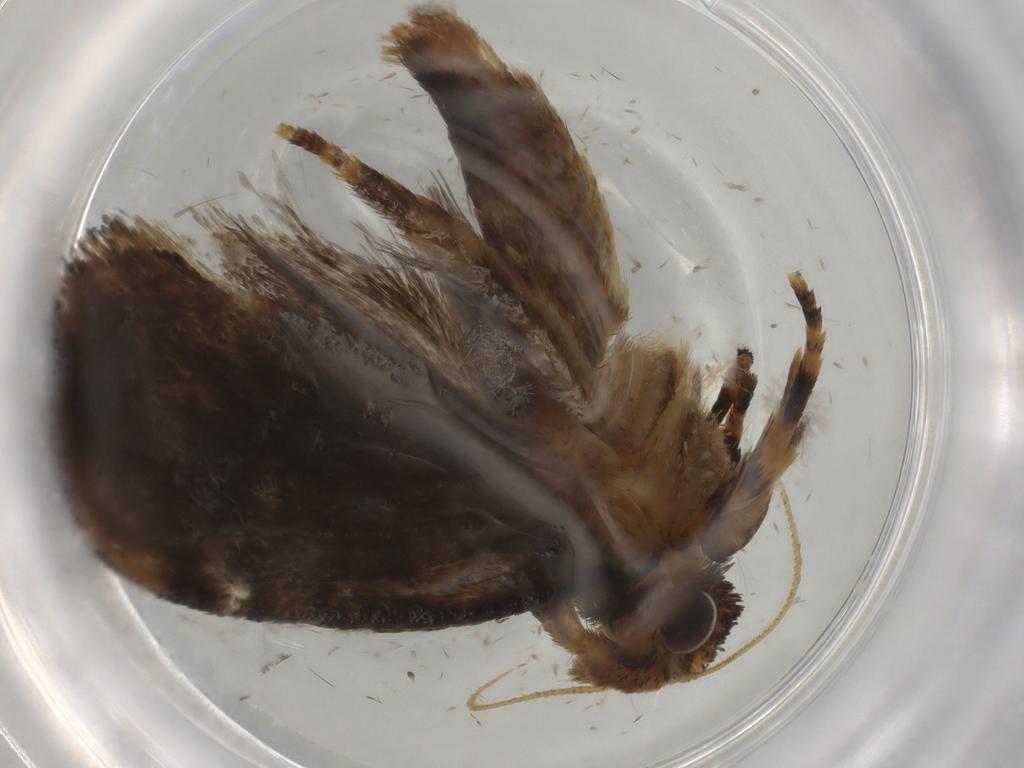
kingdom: Animalia
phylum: Arthropoda
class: Insecta
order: Lepidoptera
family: Tineidae
